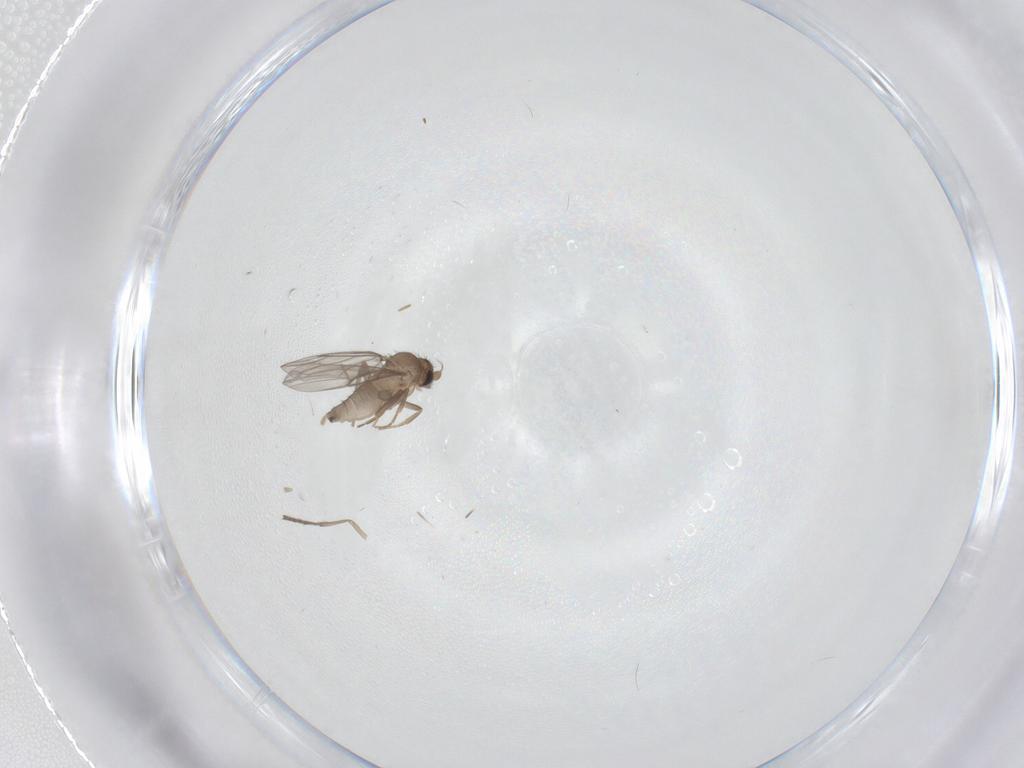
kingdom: Animalia
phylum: Arthropoda
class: Insecta
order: Diptera
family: Psychodidae
